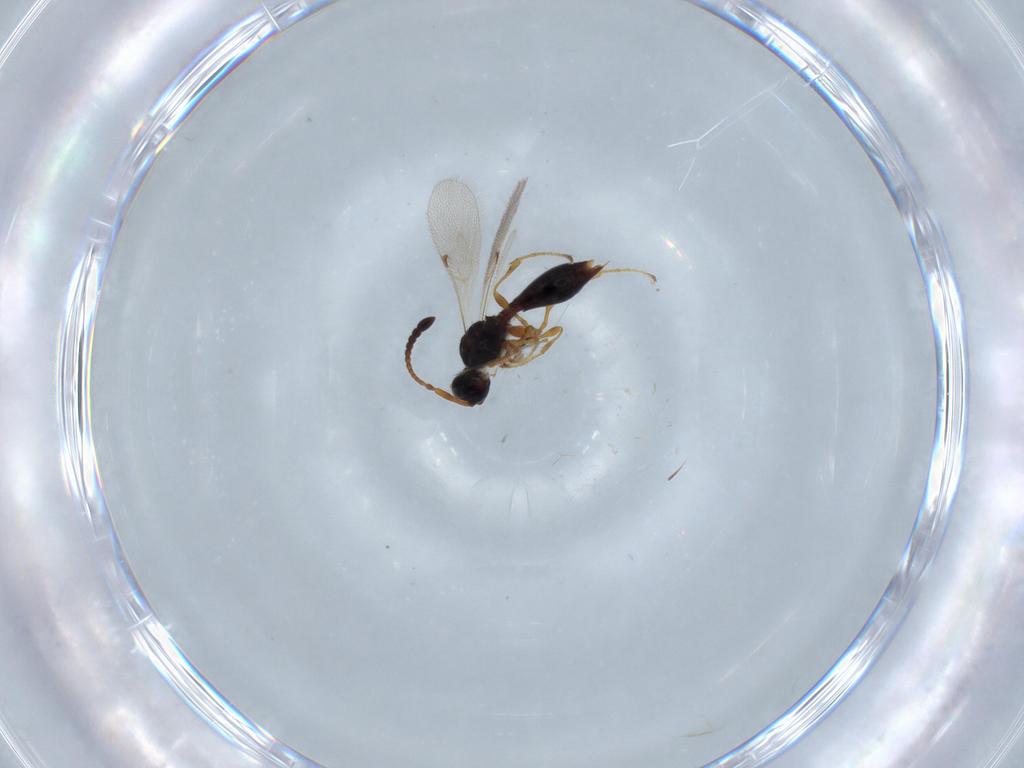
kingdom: Animalia
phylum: Arthropoda
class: Insecta
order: Hymenoptera
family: Diapriidae
